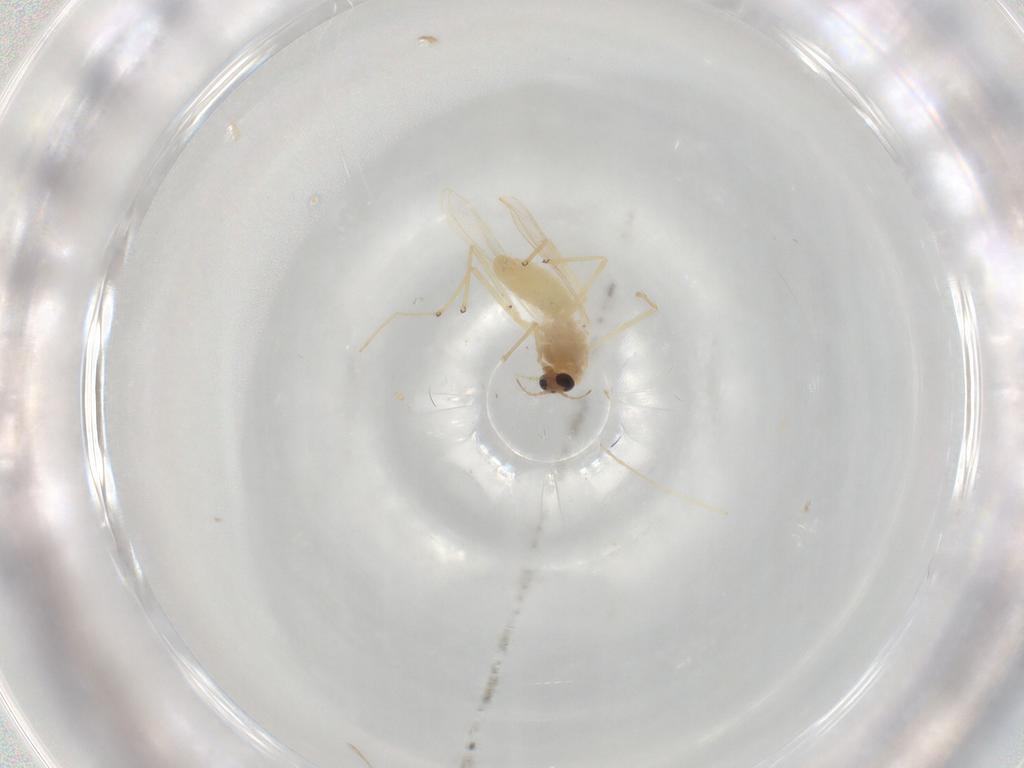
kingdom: Animalia
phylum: Arthropoda
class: Insecta
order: Diptera
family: Chironomidae
